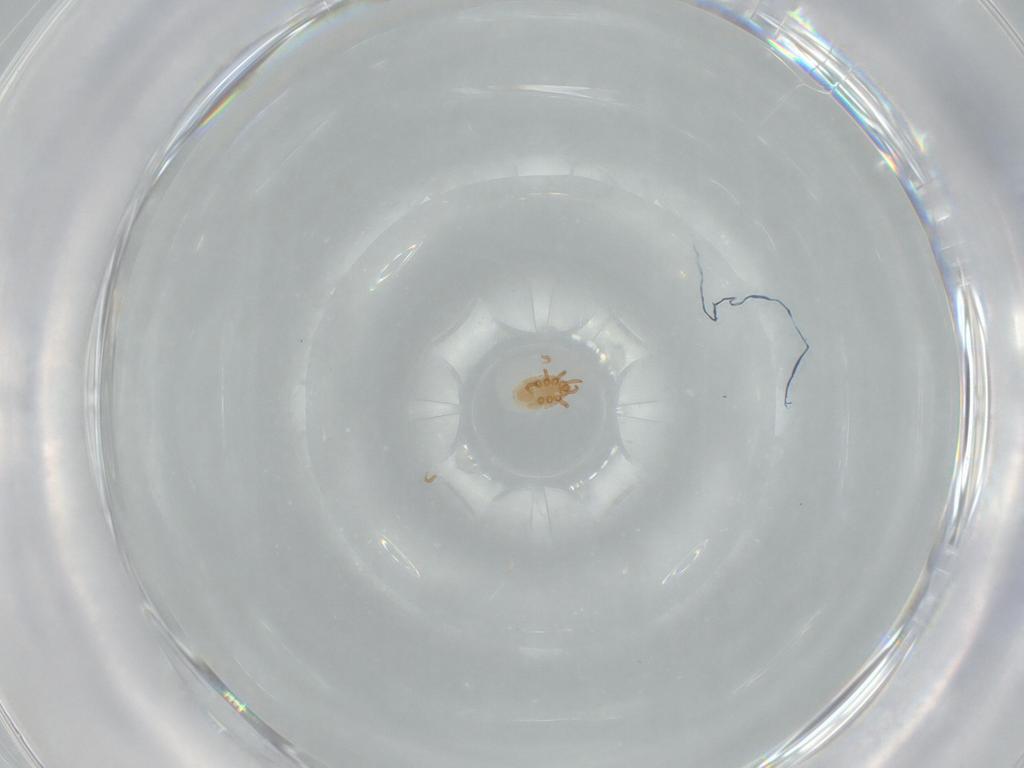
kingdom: Animalia
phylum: Arthropoda
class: Arachnida
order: Mesostigmata
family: Dinychidae
